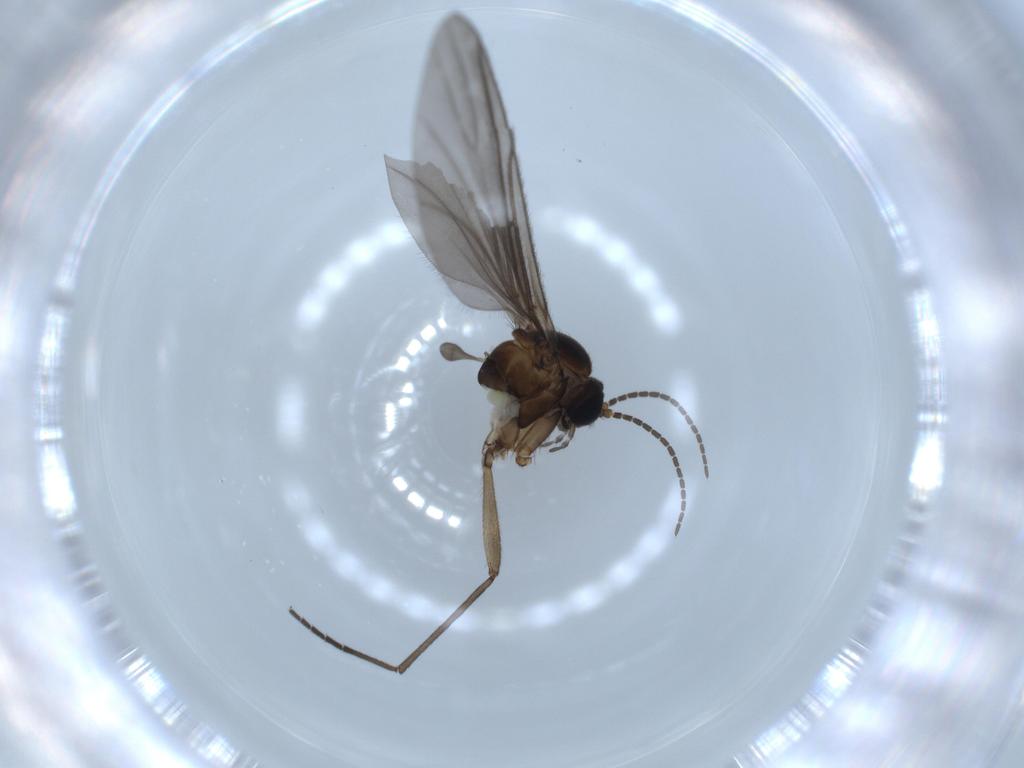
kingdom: Animalia
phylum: Arthropoda
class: Insecta
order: Diptera
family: Sciaridae
